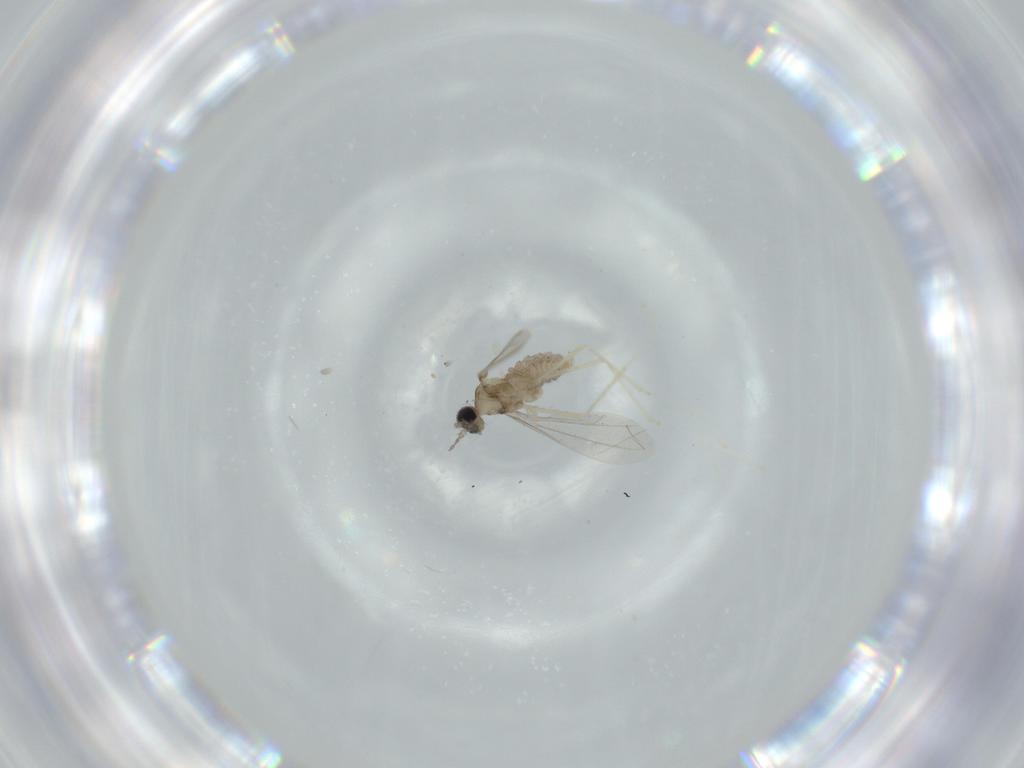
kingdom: Animalia
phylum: Arthropoda
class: Insecta
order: Diptera
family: Cecidomyiidae
